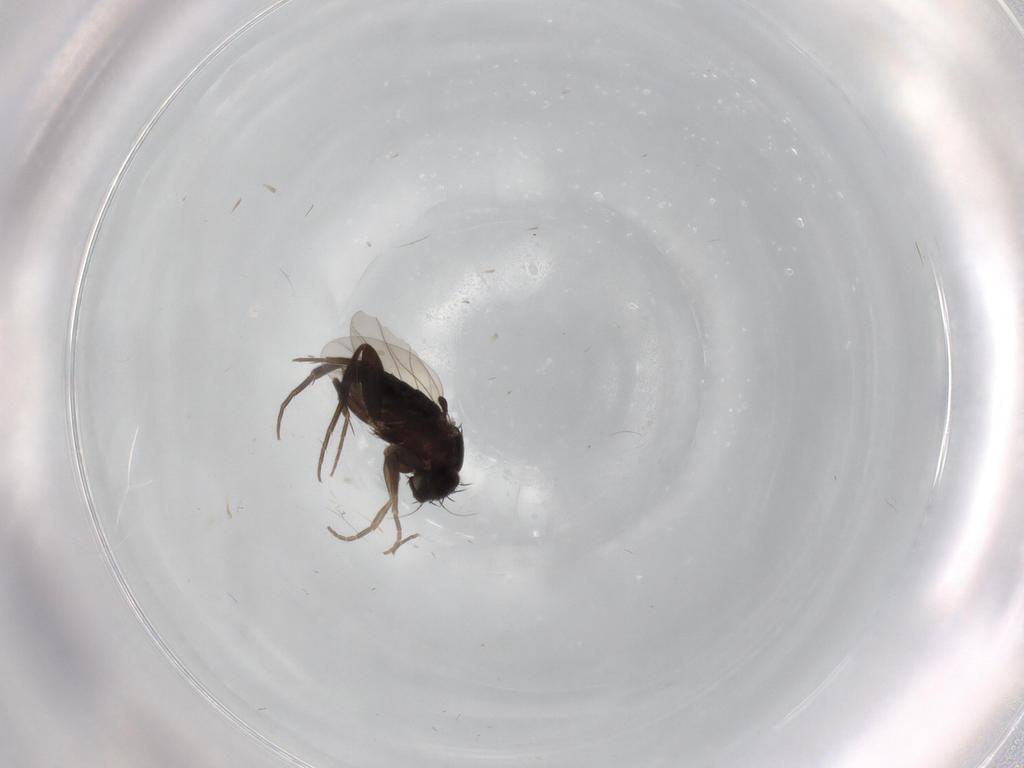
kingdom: Animalia
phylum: Arthropoda
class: Insecta
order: Diptera
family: Phoridae
